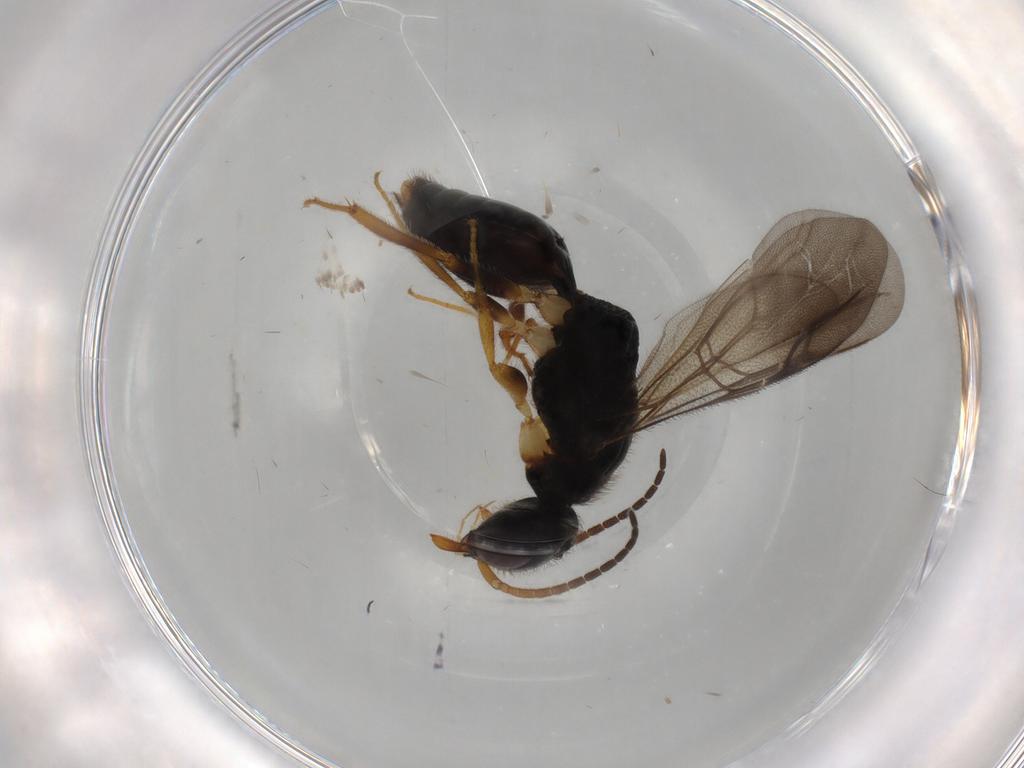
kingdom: Animalia
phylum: Arthropoda
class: Insecta
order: Hymenoptera
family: Bethylidae
